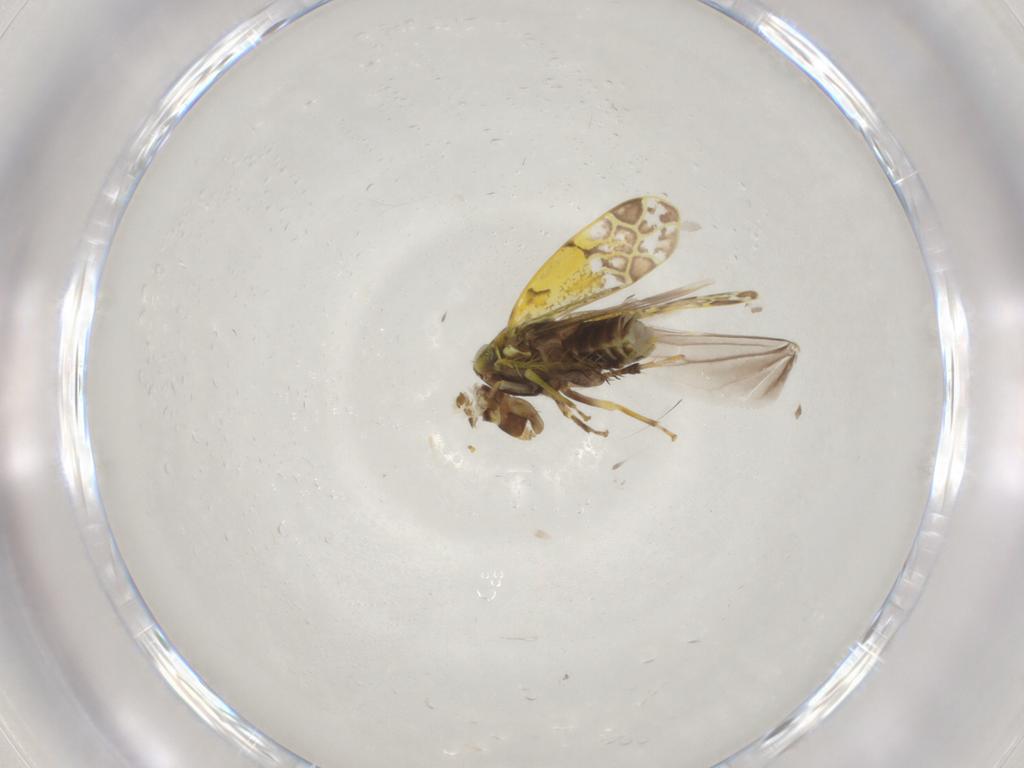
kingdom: Animalia
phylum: Arthropoda
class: Insecta
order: Hemiptera
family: Cicadellidae
